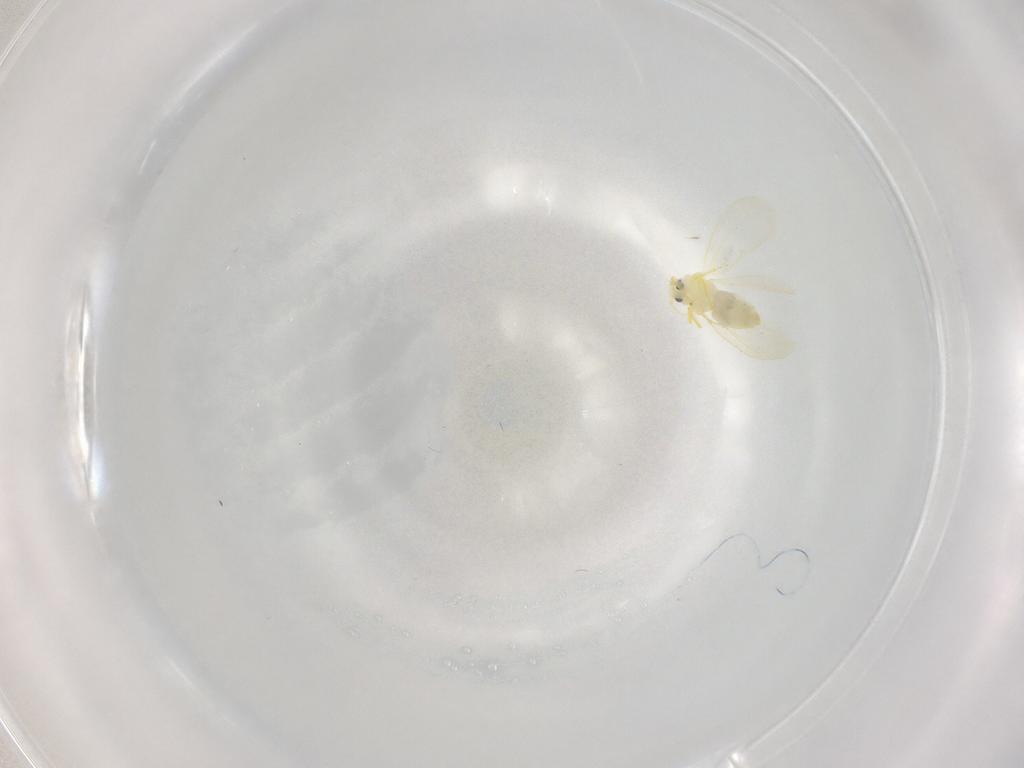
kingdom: Animalia
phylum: Arthropoda
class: Insecta
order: Hemiptera
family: Aleyrodidae
